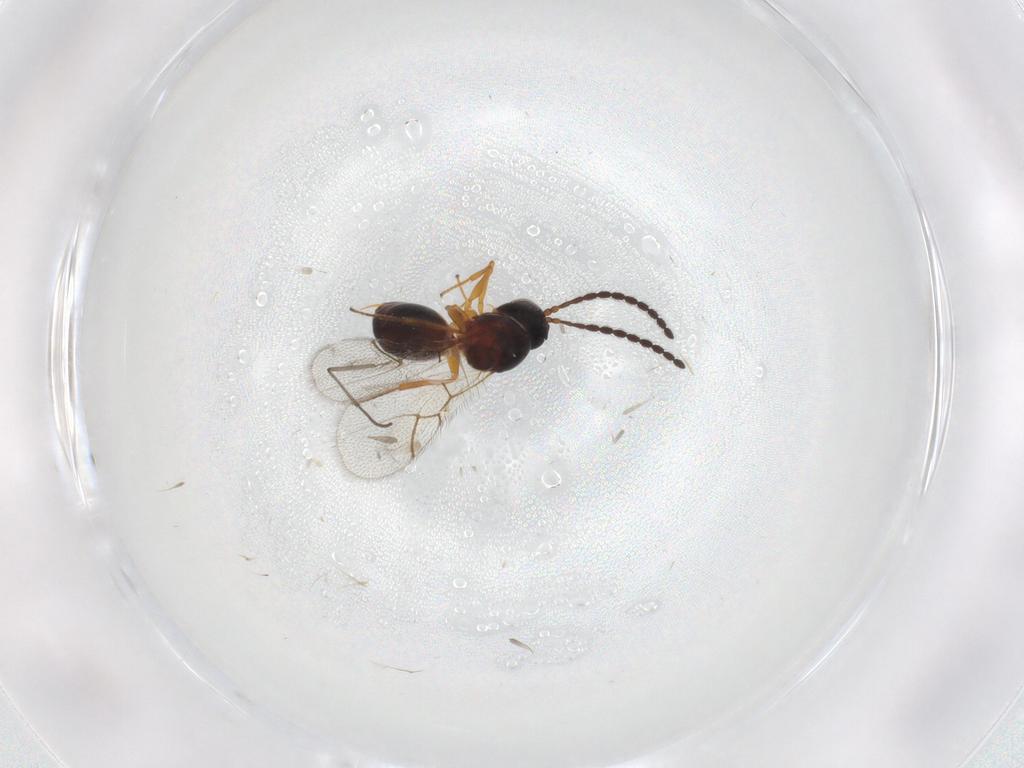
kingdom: Animalia
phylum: Arthropoda
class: Insecta
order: Hymenoptera
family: Figitidae
